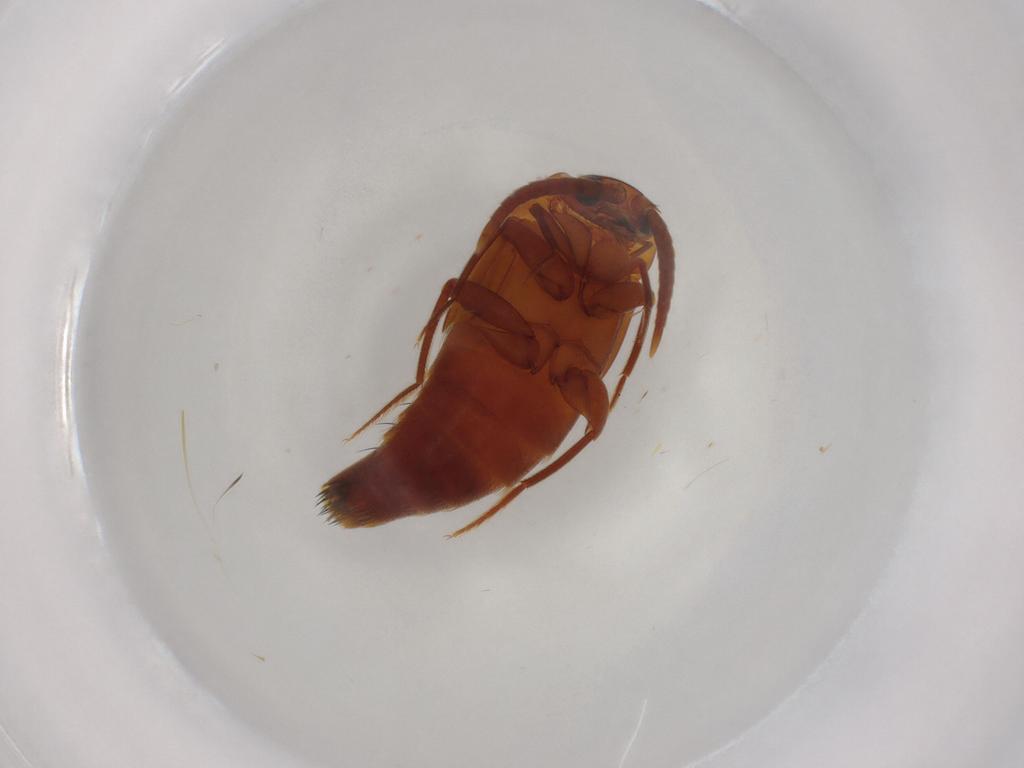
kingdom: Animalia
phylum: Arthropoda
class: Insecta
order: Coleoptera
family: Staphylinidae
